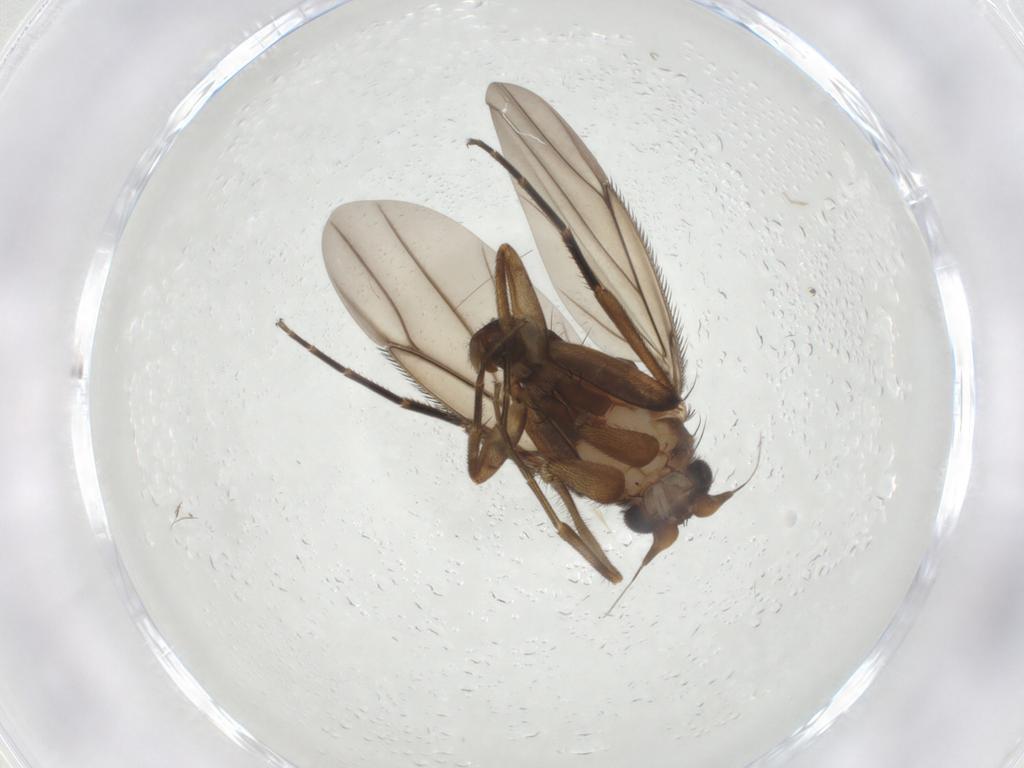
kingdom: Animalia
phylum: Arthropoda
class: Insecta
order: Diptera
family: Phoridae
